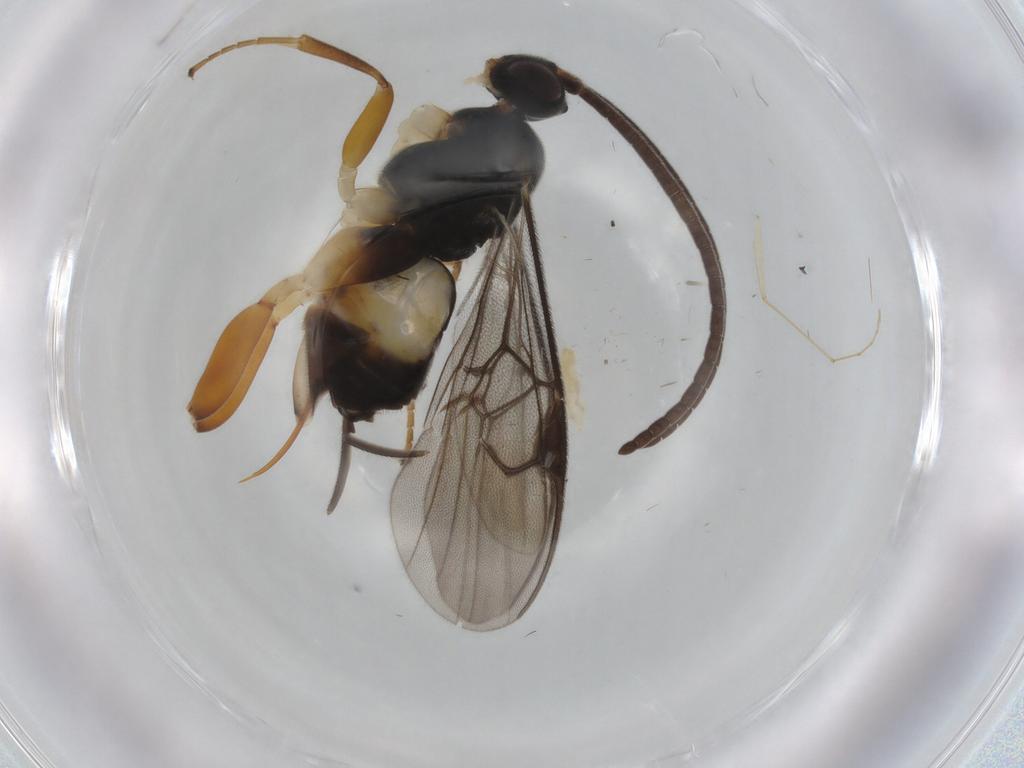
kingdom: Animalia
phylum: Arthropoda
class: Insecta
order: Hymenoptera
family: Braconidae
